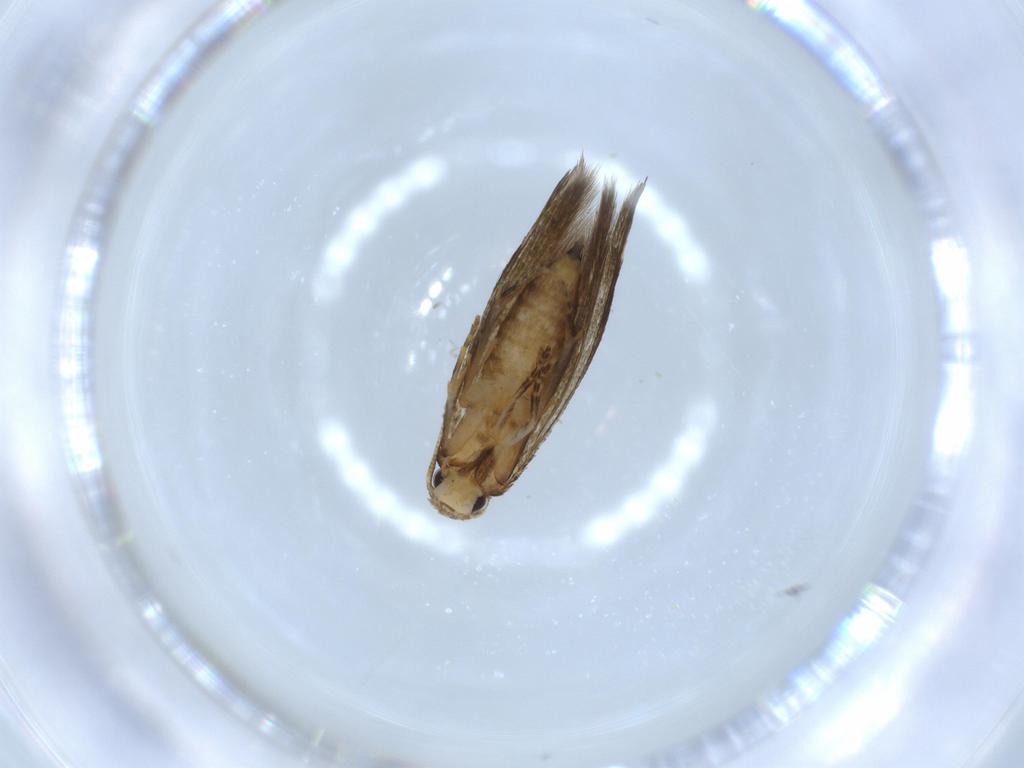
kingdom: Animalia
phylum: Arthropoda
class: Insecta
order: Lepidoptera
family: Tineidae
